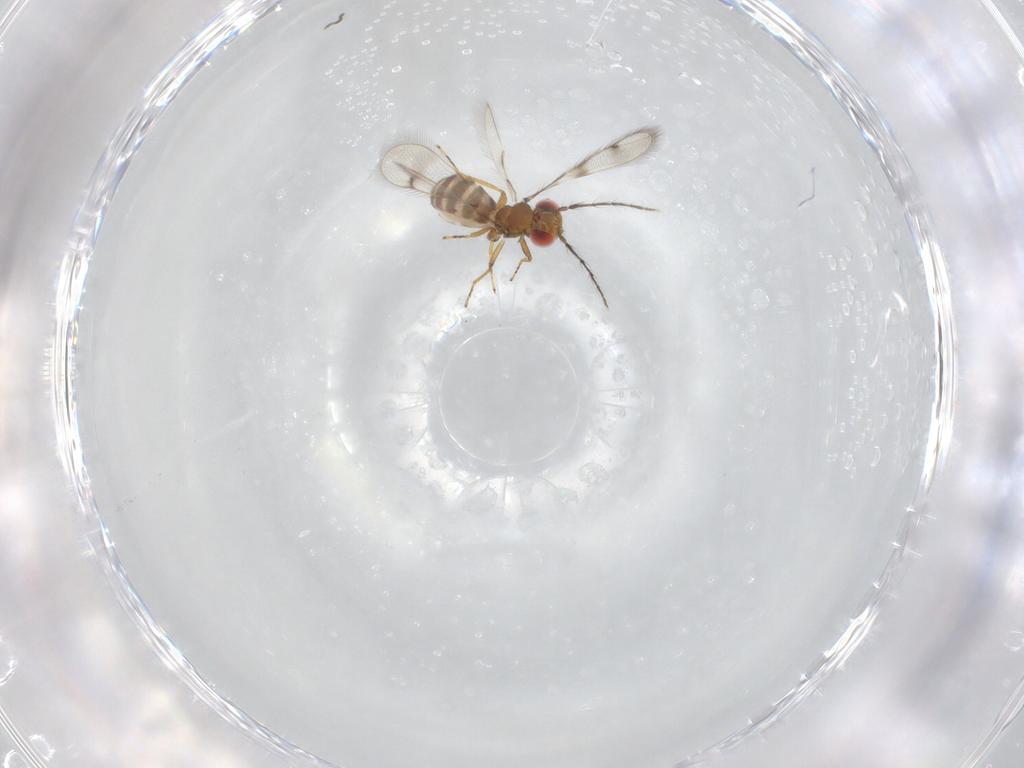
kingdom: Animalia
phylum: Arthropoda
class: Insecta
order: Hymenoptera
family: Eulophidae
